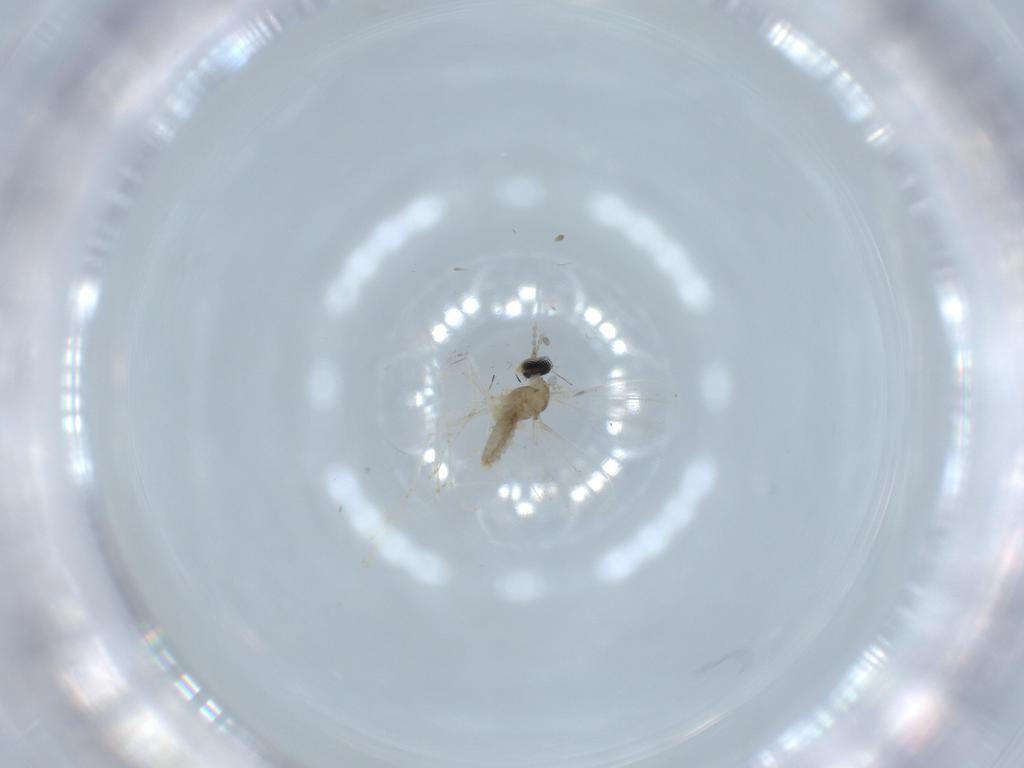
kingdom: Animalia
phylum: Arthropoda
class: Insecta
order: Diptera
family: Cecidomyiidae
